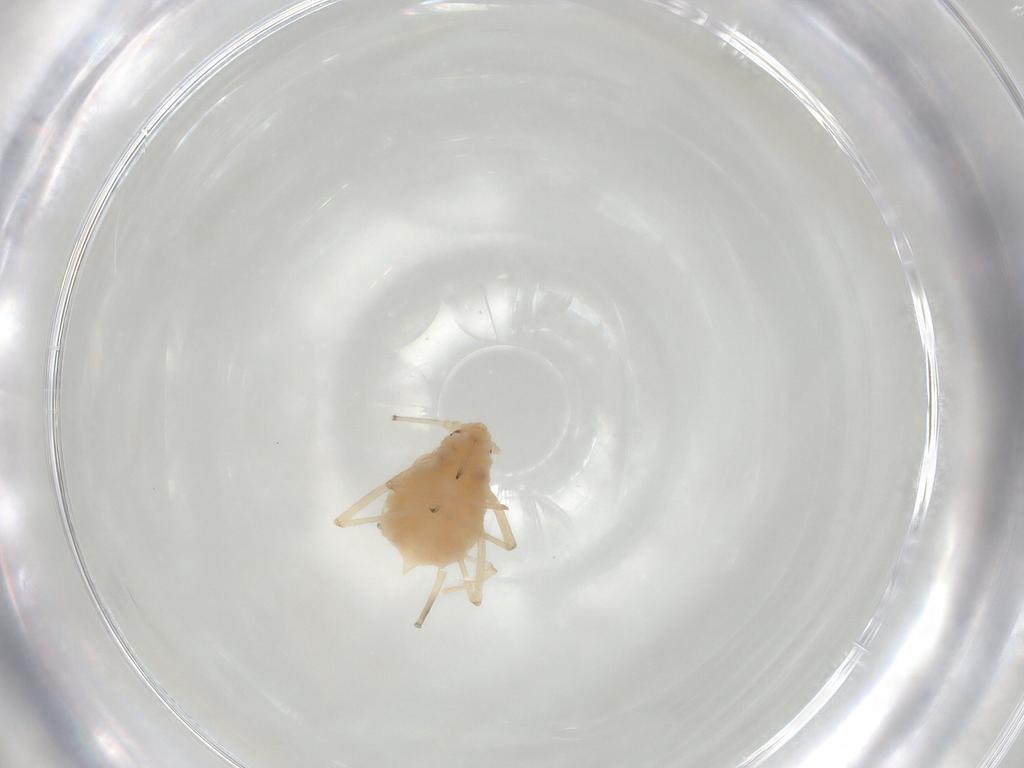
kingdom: Animalia
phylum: Arthropoda
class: Insecta
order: Hemiptera
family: Aphididae
